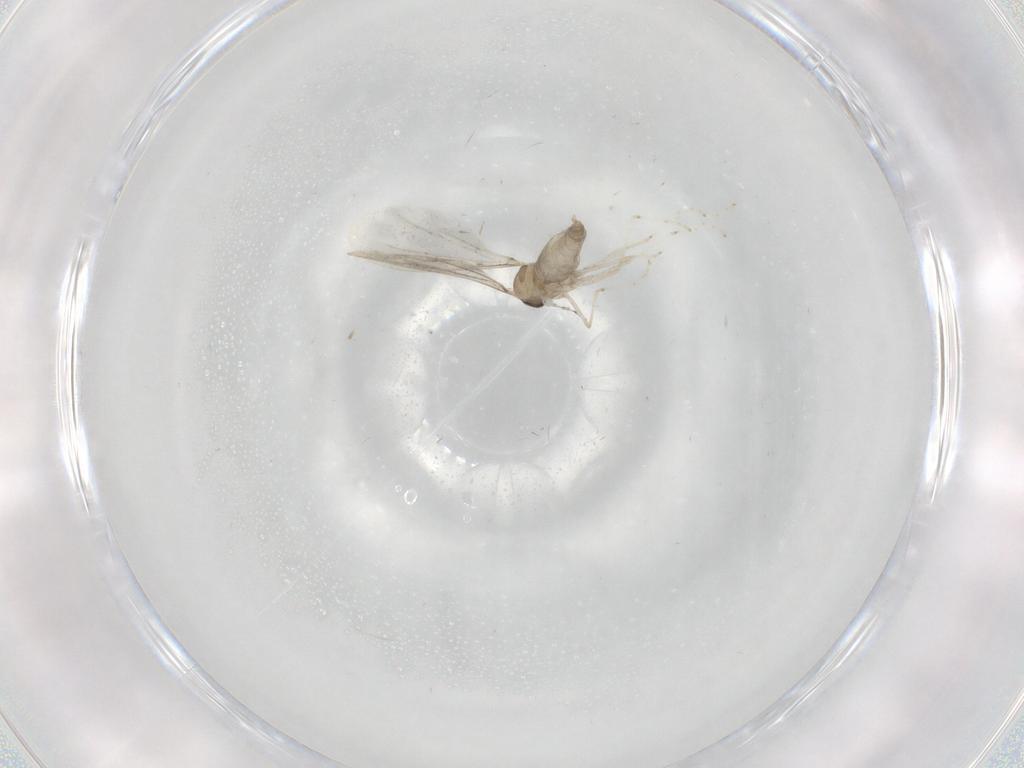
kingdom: Animalia
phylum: Arthropoda
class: Insecta
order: Diptera
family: Cecidomyiidae
